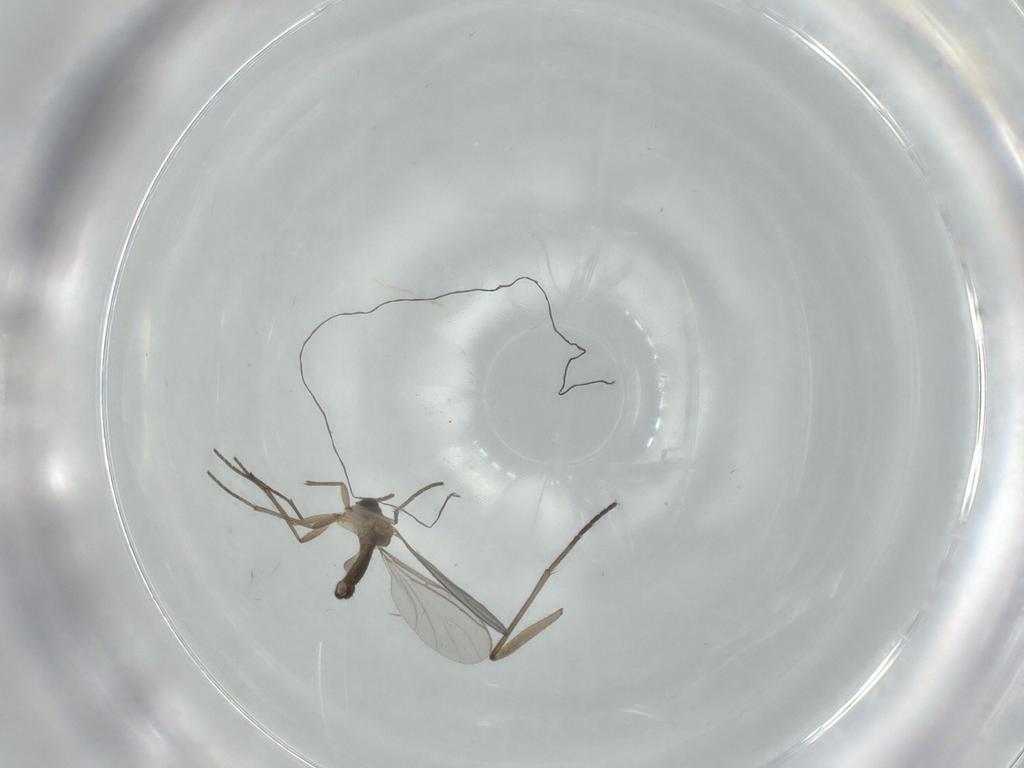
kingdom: Animalia
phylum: Arthropoda
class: Insecta
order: Diptera
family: Sciaridae
